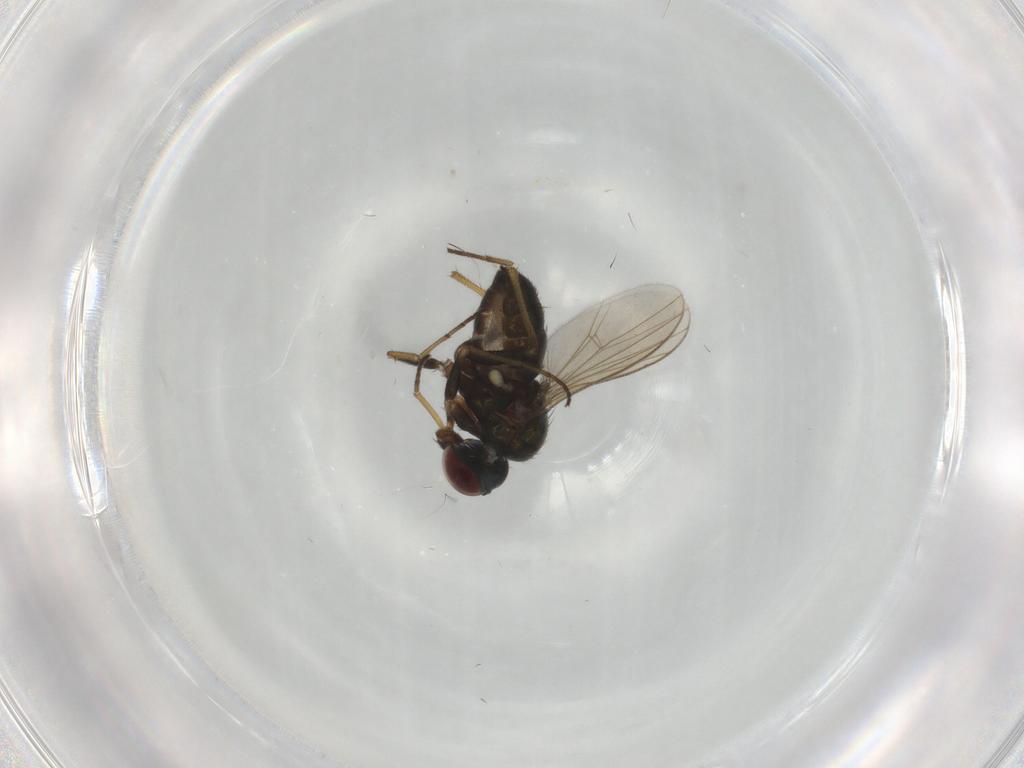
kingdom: Animalia
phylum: Arthropoda
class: Insecta
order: Diptera
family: Dolichopodidae
